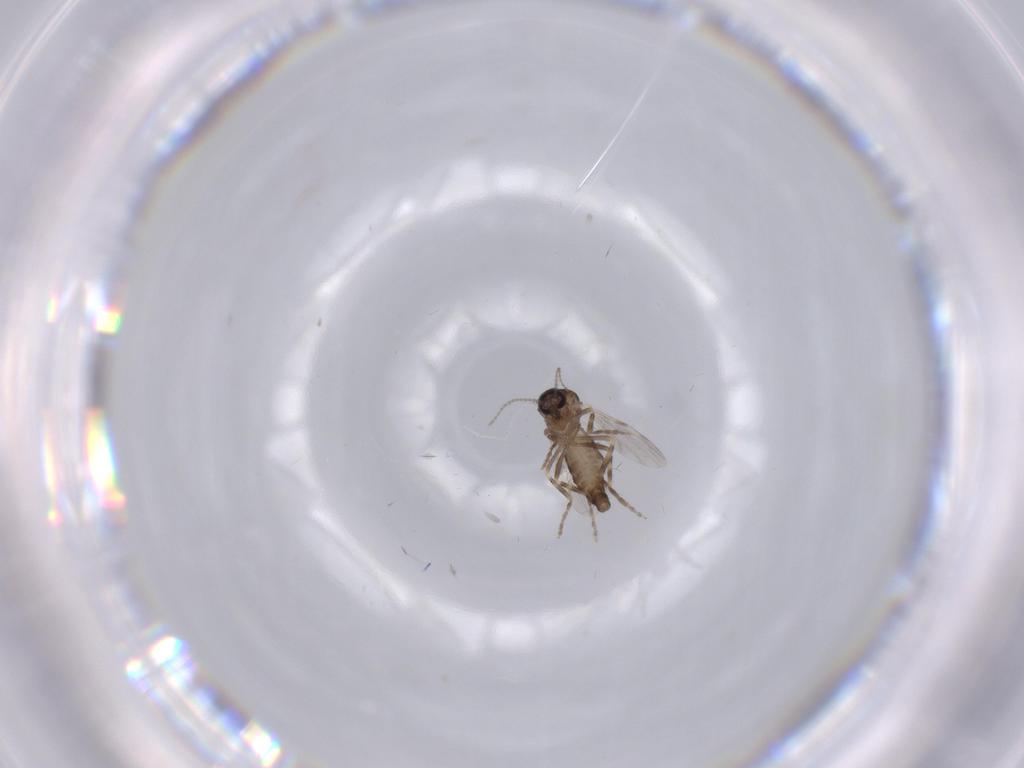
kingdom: Animalia
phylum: Arthropoda
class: Insecta
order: Diptera
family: Ceratopogonidae
